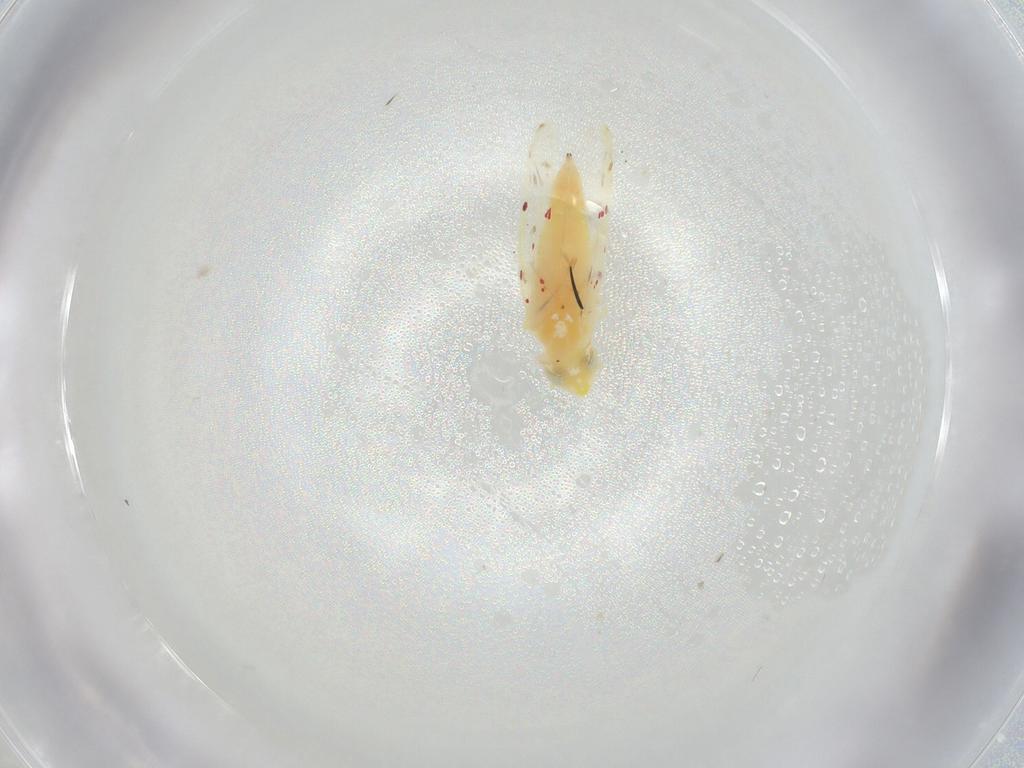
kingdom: Animalia
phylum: Arthropoda
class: Insecta
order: Hemiptera
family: Cicadellidae
